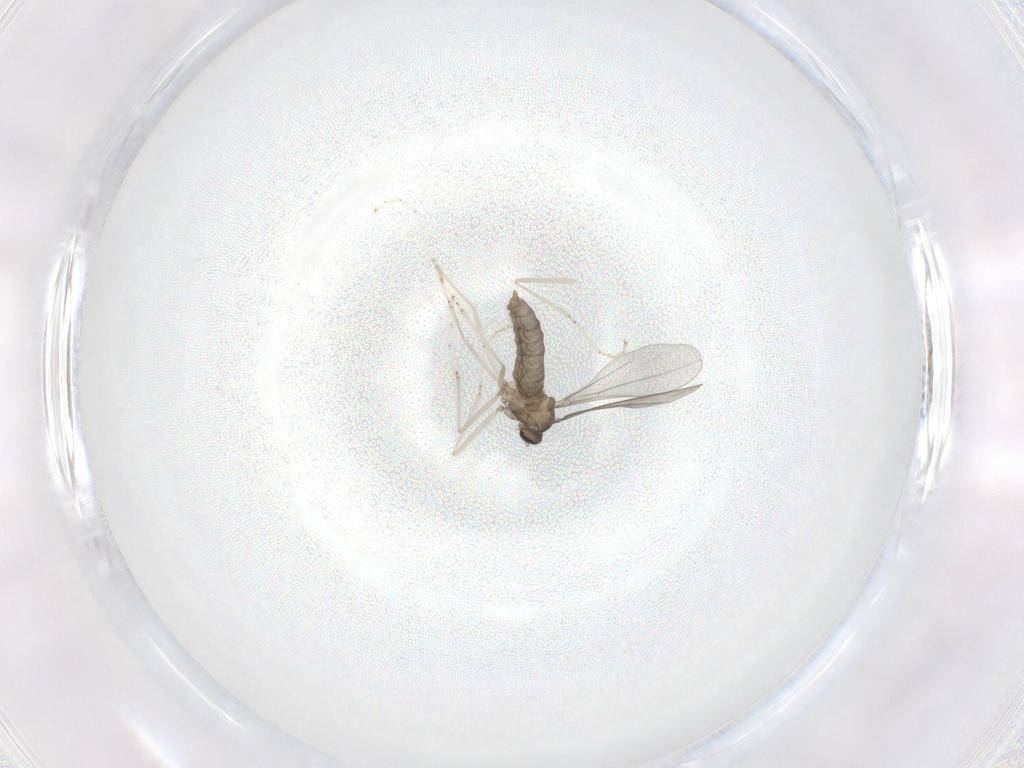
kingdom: Animalia
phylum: Arthropoda
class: Insecta
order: Diptera
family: Cecidomyiidae
